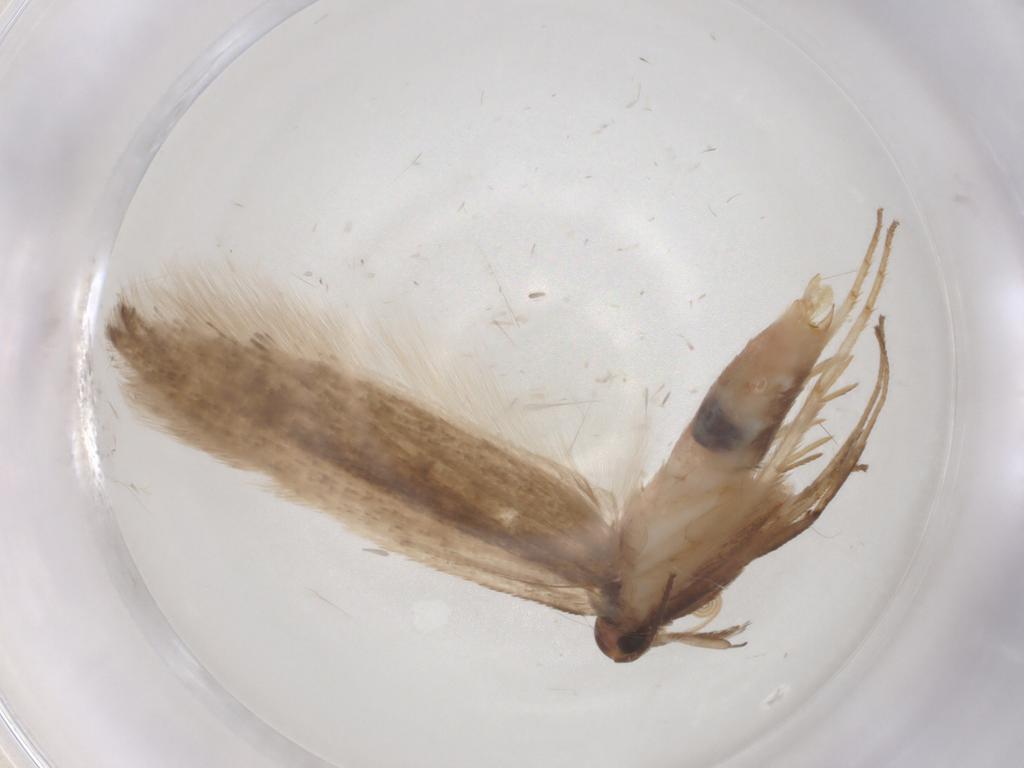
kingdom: Animalia
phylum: Arthropoda
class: Insecta
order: Lepidoptera
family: Gelechiidae
